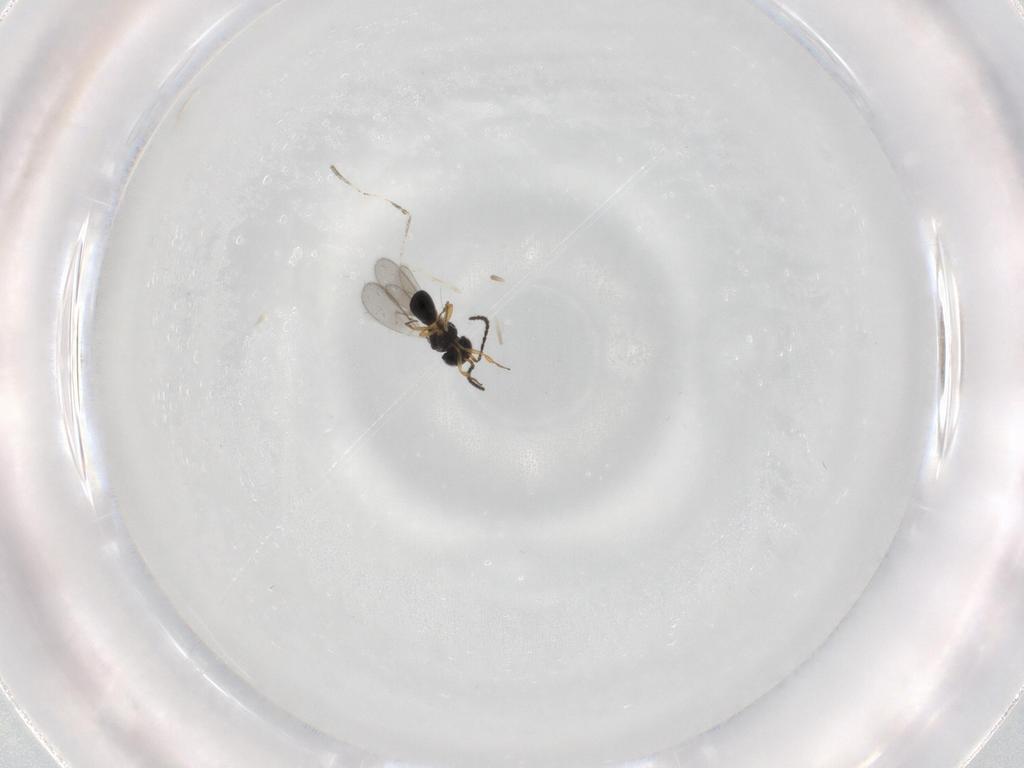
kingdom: Animalia
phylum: Arthropoda
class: Insecta
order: Hymenoptera
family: Scelionidae
